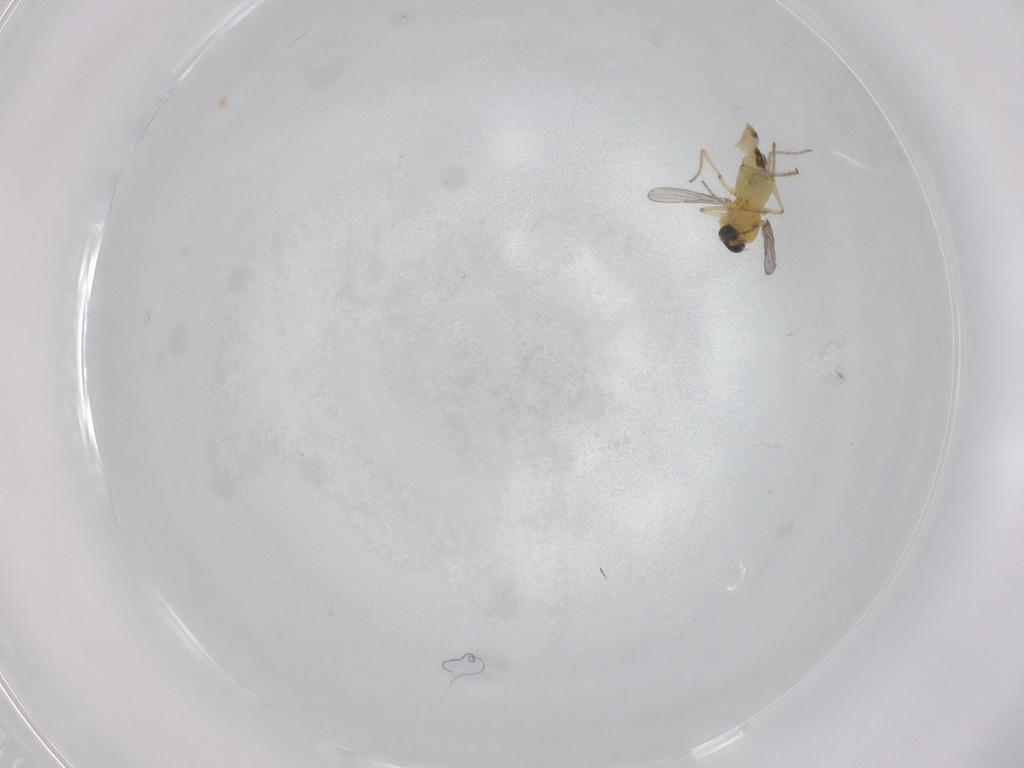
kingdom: Animalia
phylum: Arthropoda
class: Insecta
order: Diptera
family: Ceratopogonidae
